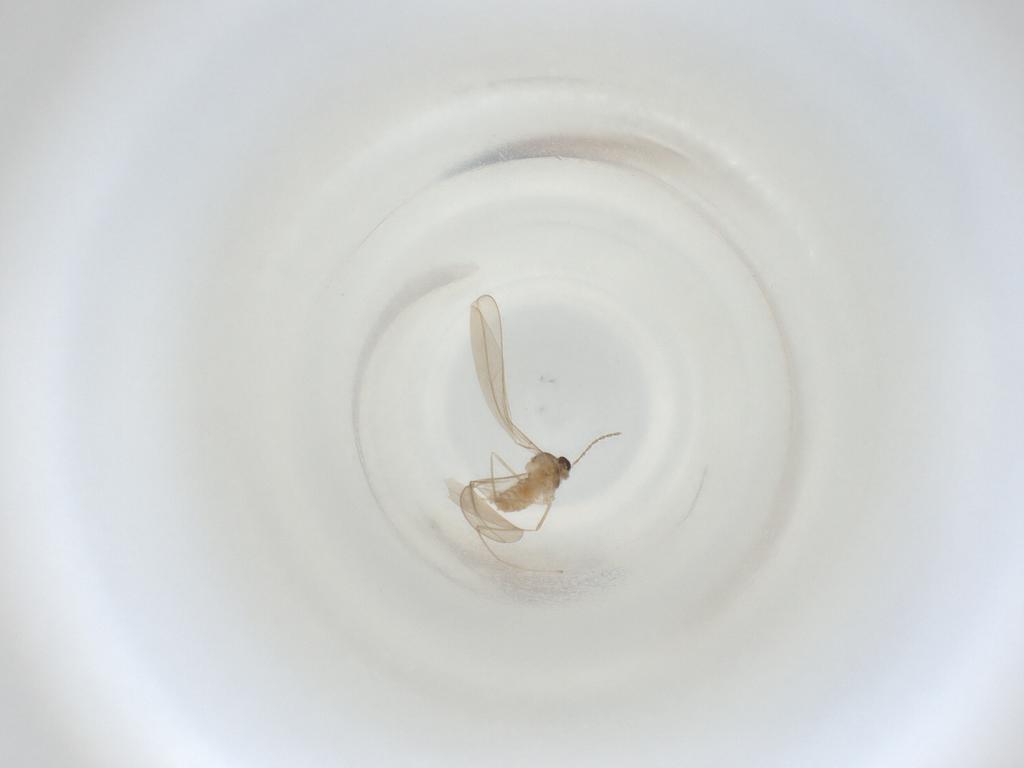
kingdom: Animalia
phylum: Arthropoda
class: Insecta
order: Diptera
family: Cecidomyiidae
